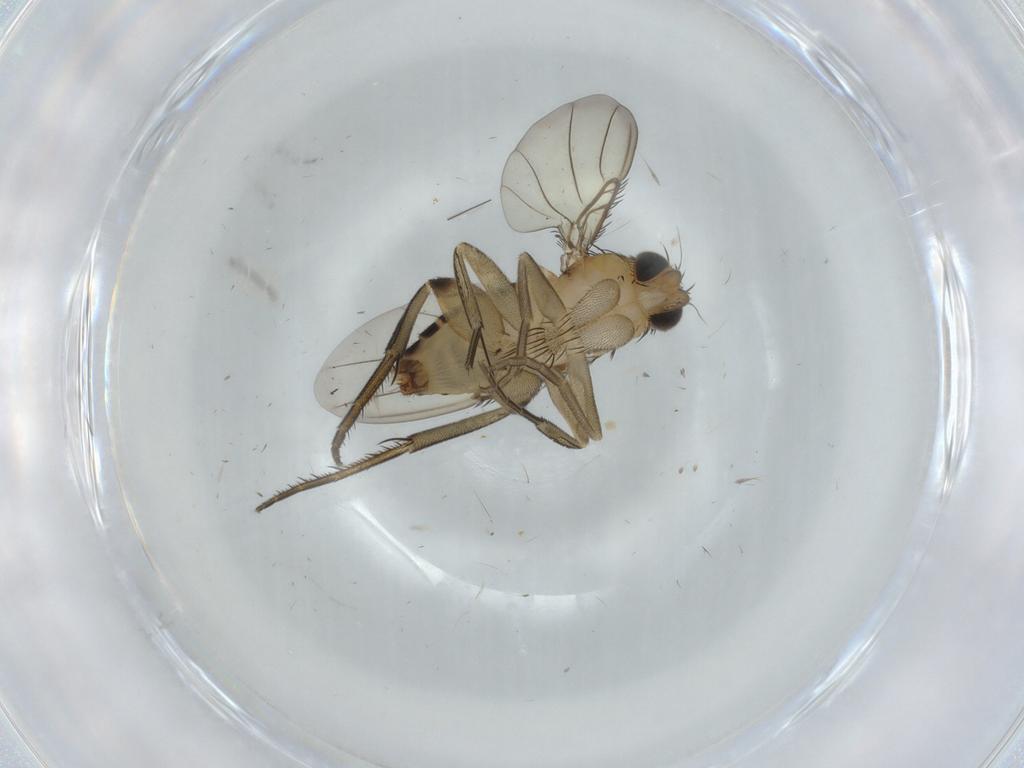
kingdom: Animalia
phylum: Arthropoda
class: Insecta
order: Diptera
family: Phoridae
